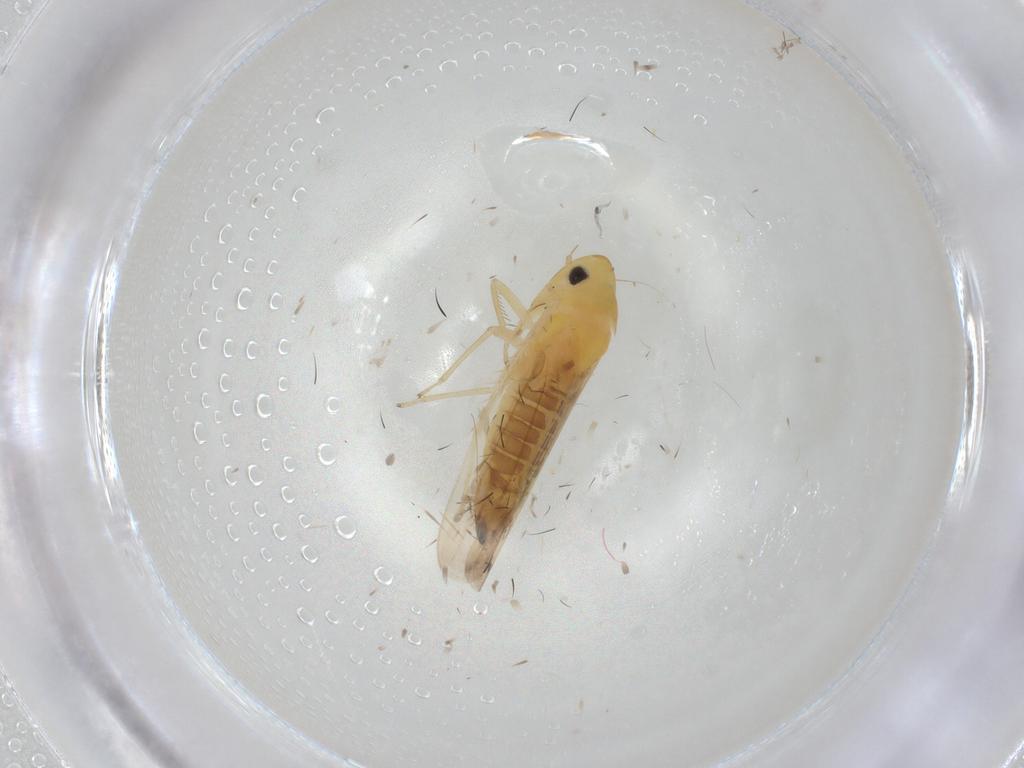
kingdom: Animalia
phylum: Arthropoda
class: Insecta
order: Hemiptera
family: Cicadellidae
